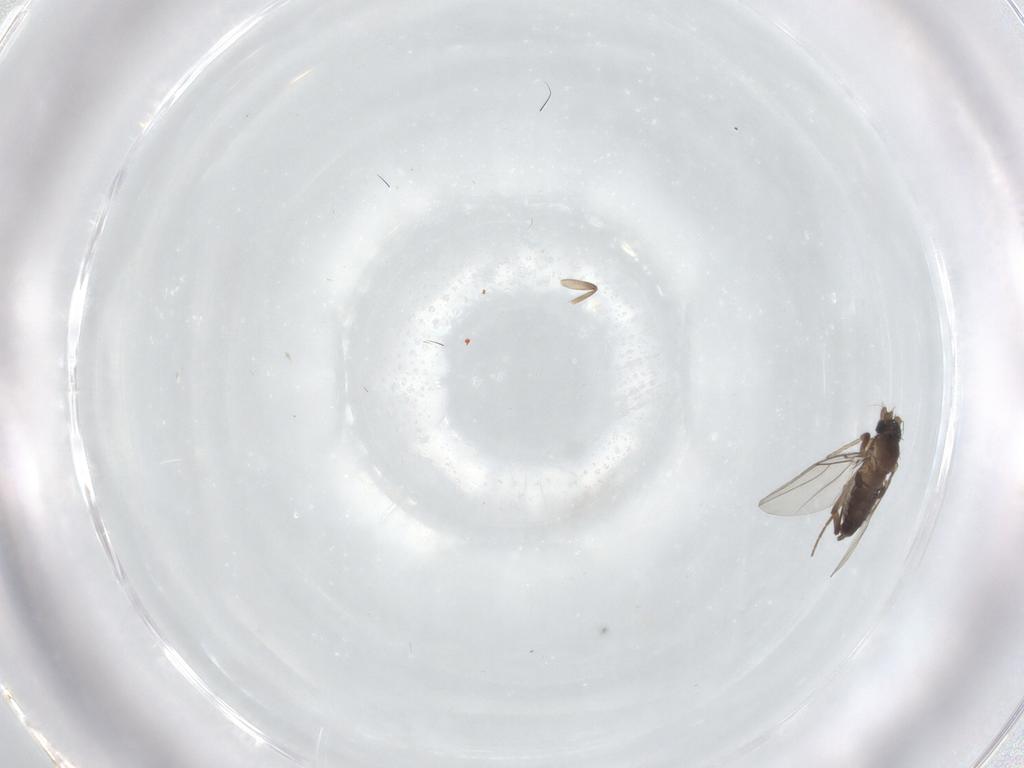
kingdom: Animalia
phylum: Arthropoda
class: Insecta
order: Diptera
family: Phoridae
